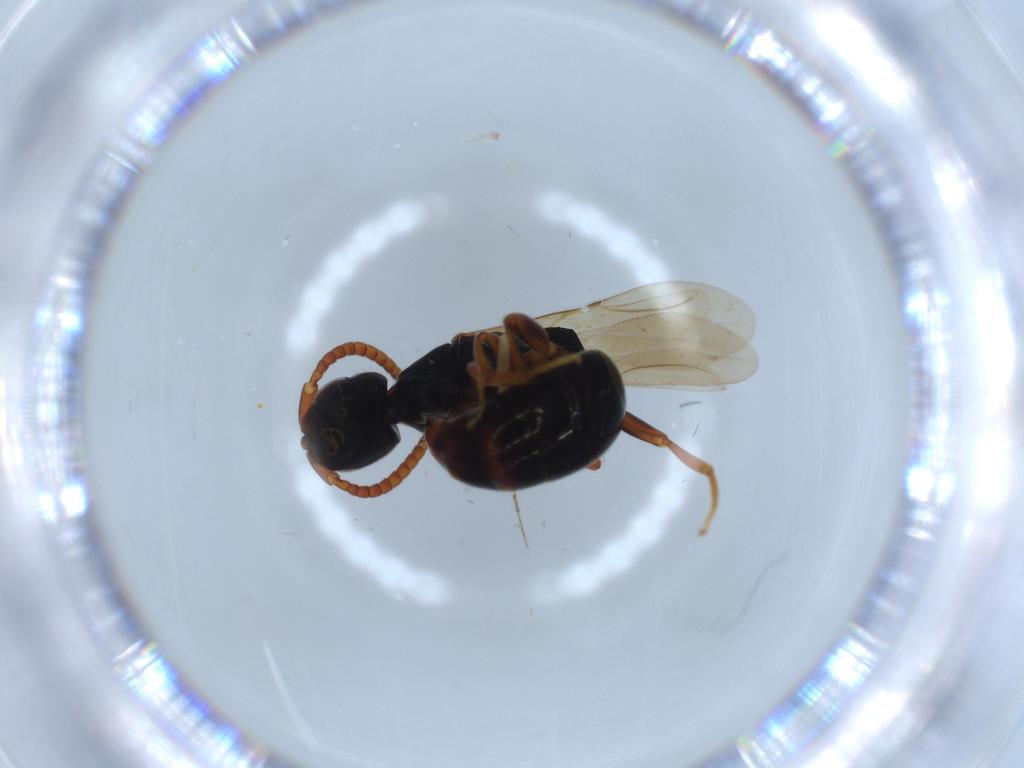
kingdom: Animalia
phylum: Arthropoda
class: Insecta
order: Hymenoptera
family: Bethylidae
